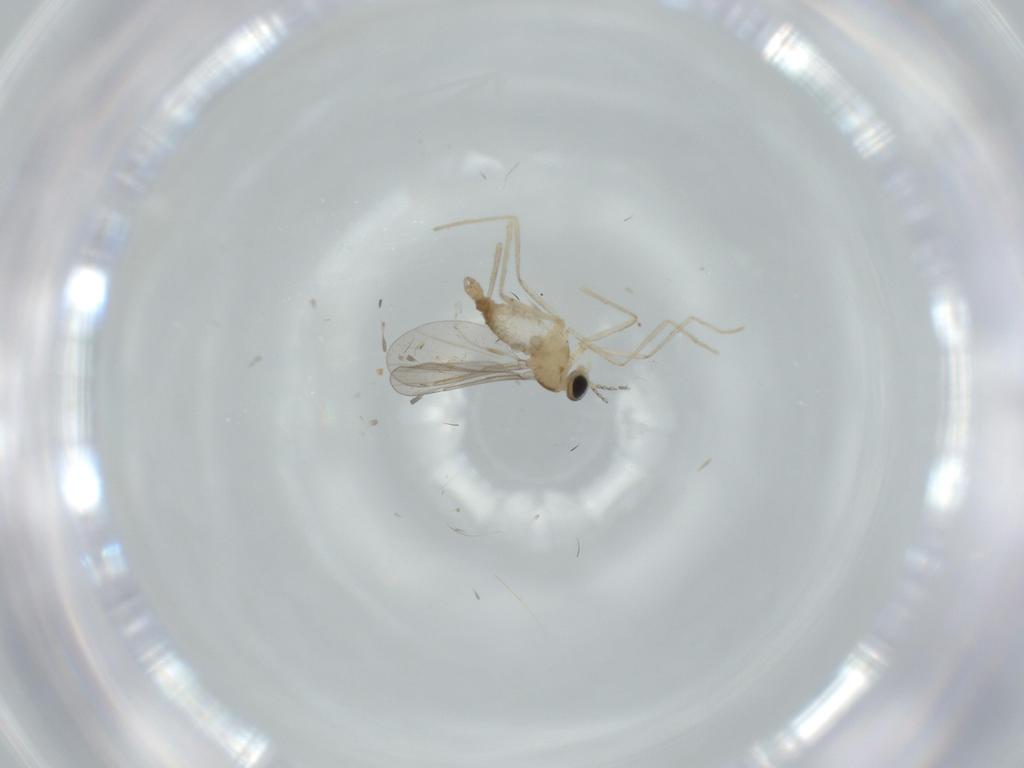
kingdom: Animalia
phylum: Arthropoda
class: Insecta
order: Diptera
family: Cecidomyiidae
